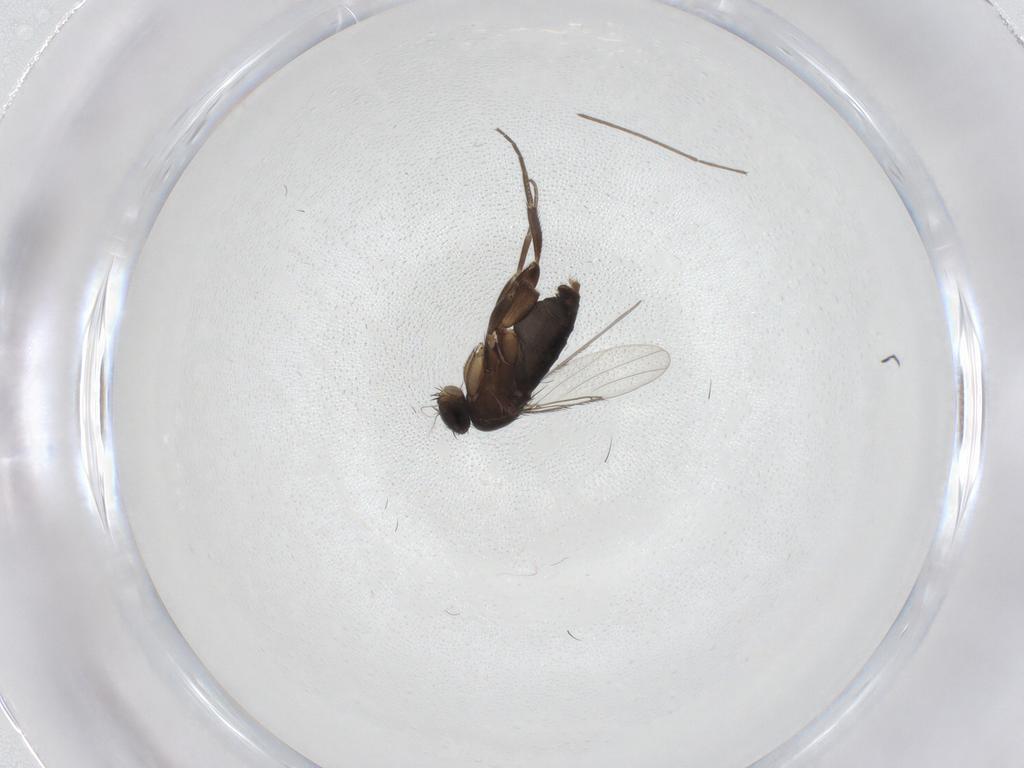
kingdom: Animalia
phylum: Arthropoda
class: Insecta
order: Diptera
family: Phoridae
